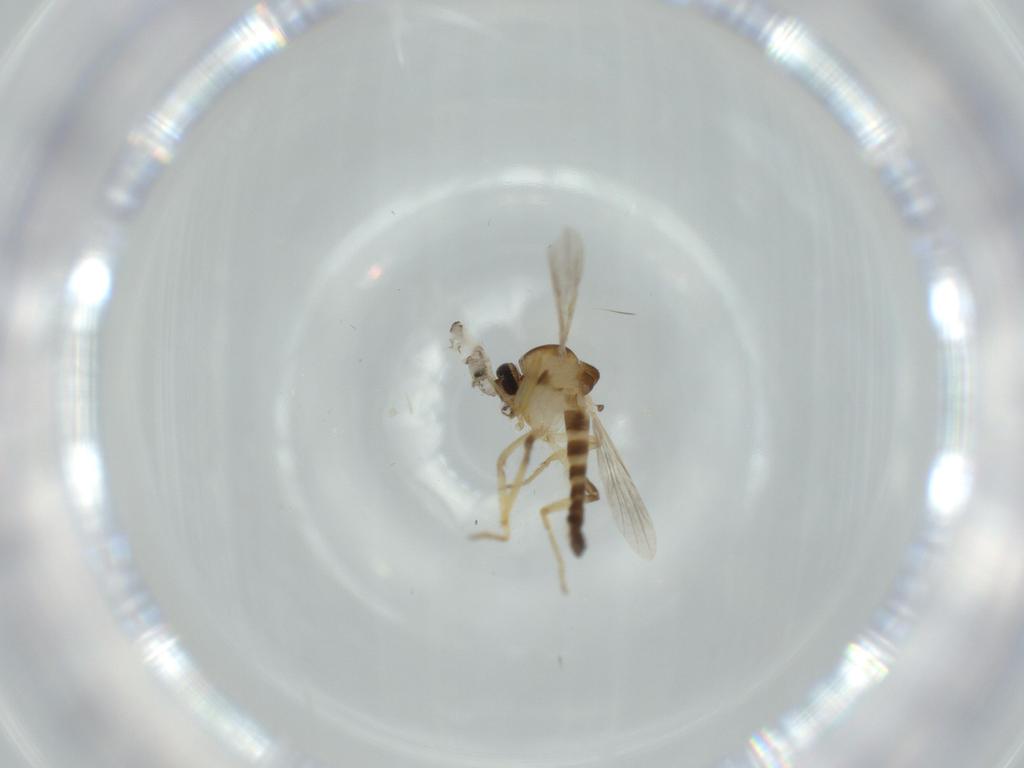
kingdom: Animalia
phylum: Arthropoda
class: Insecta
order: Diptera
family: Ceratopogonidae
